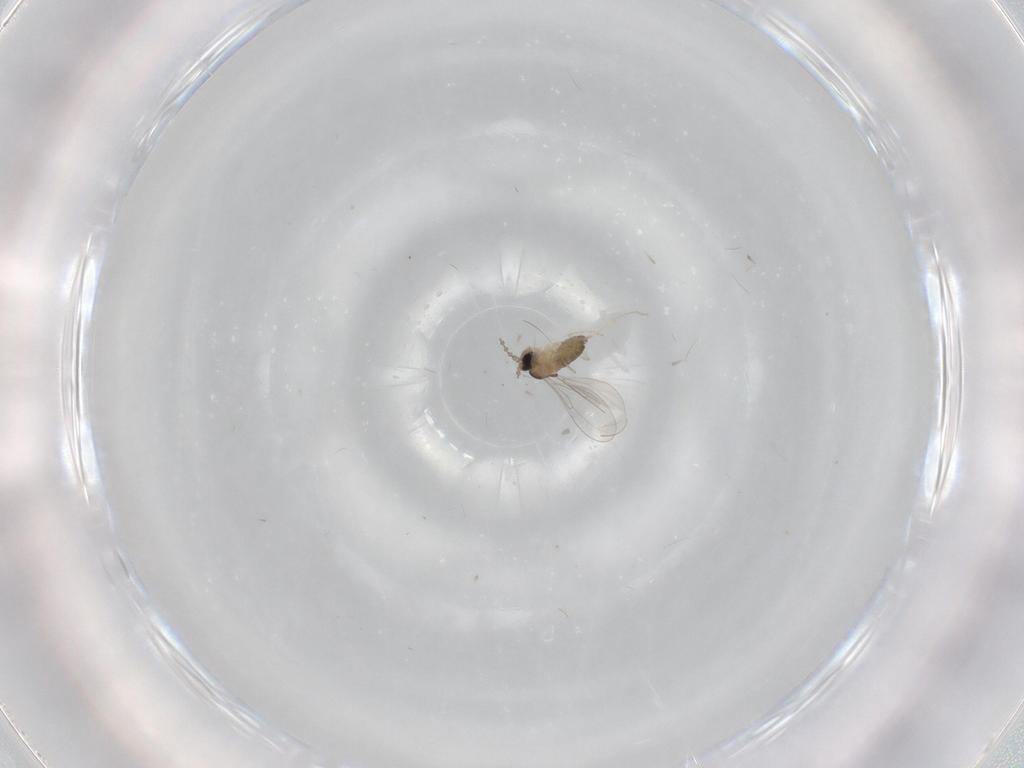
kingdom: Animalia
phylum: Arthropoda
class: Insecta
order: Diptera
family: Cecidomyiidae
